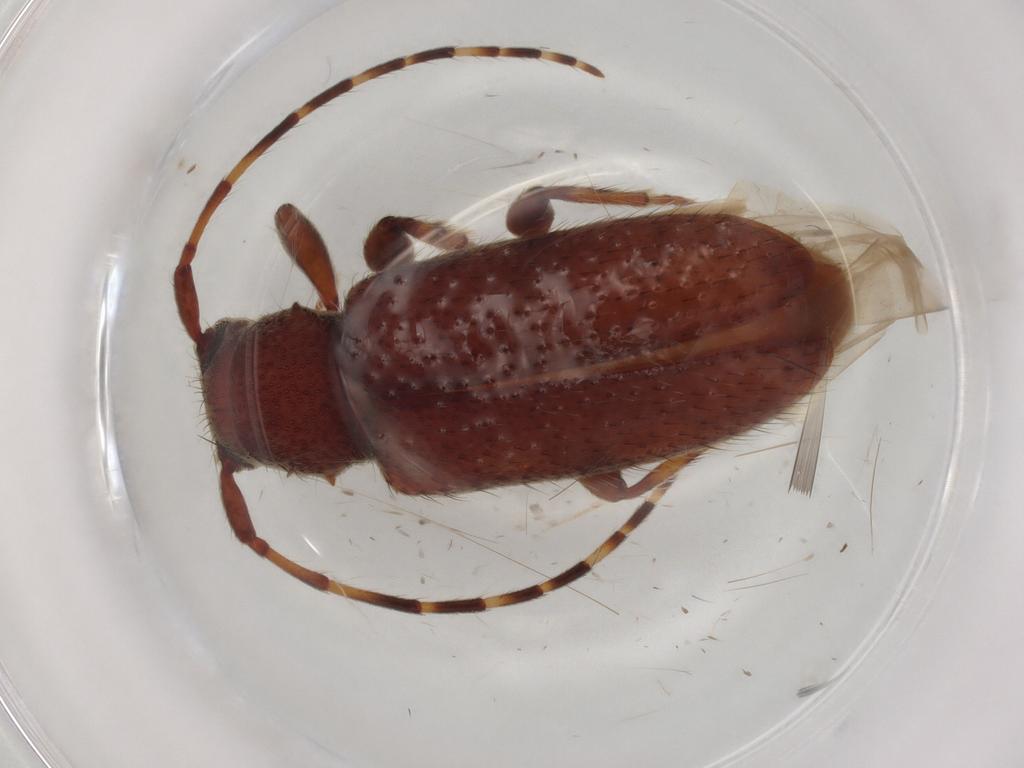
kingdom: Animalia
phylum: Arthropoda
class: Insecta
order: Coleoptera
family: Cerambycidae
